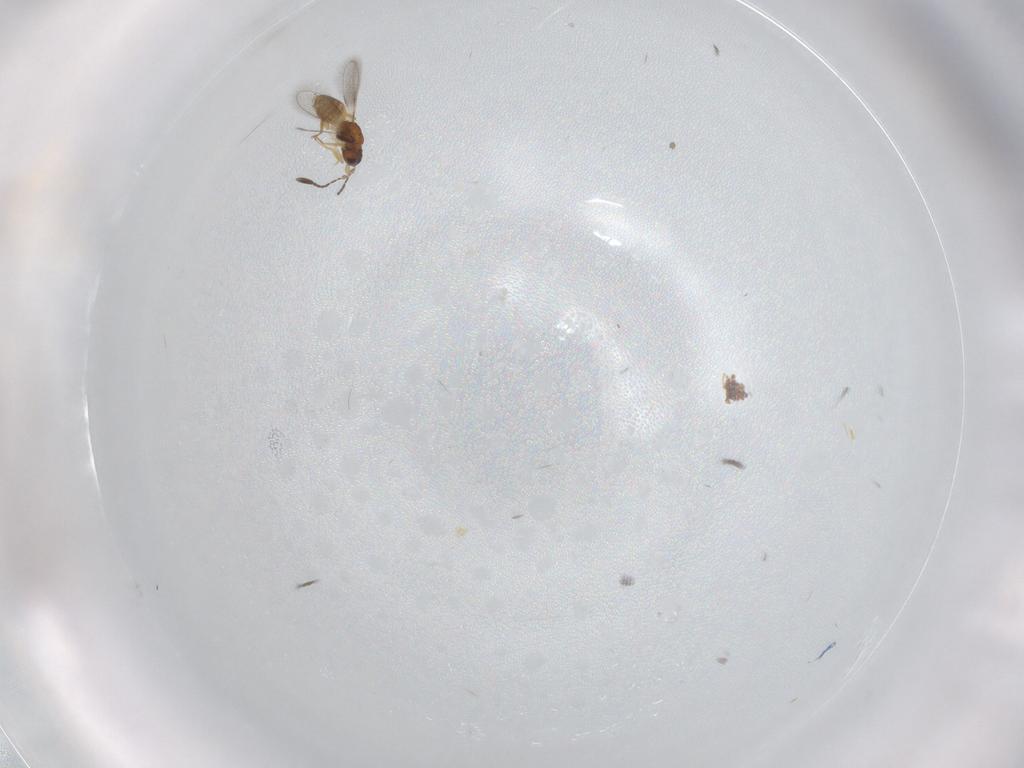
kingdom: Animalia
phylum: Arthropoda
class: Insecta
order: Hymenoptera
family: Mymaridae
